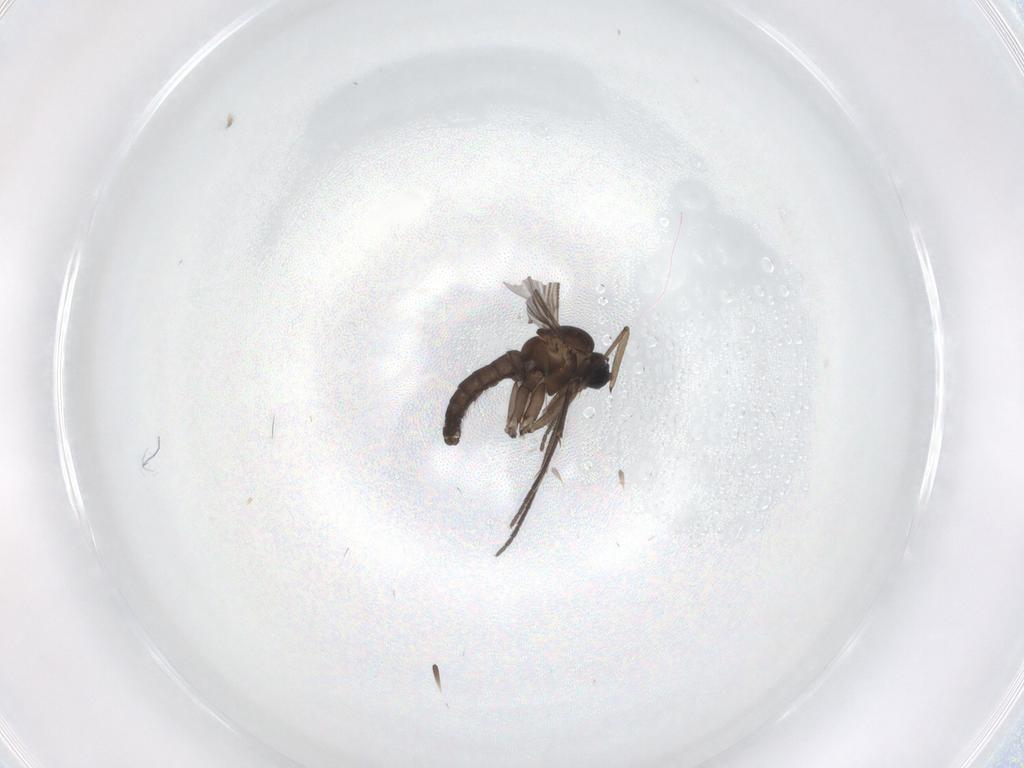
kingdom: Animalia
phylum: Arthropoda
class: Insecta
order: Diptera
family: Sciaridae
